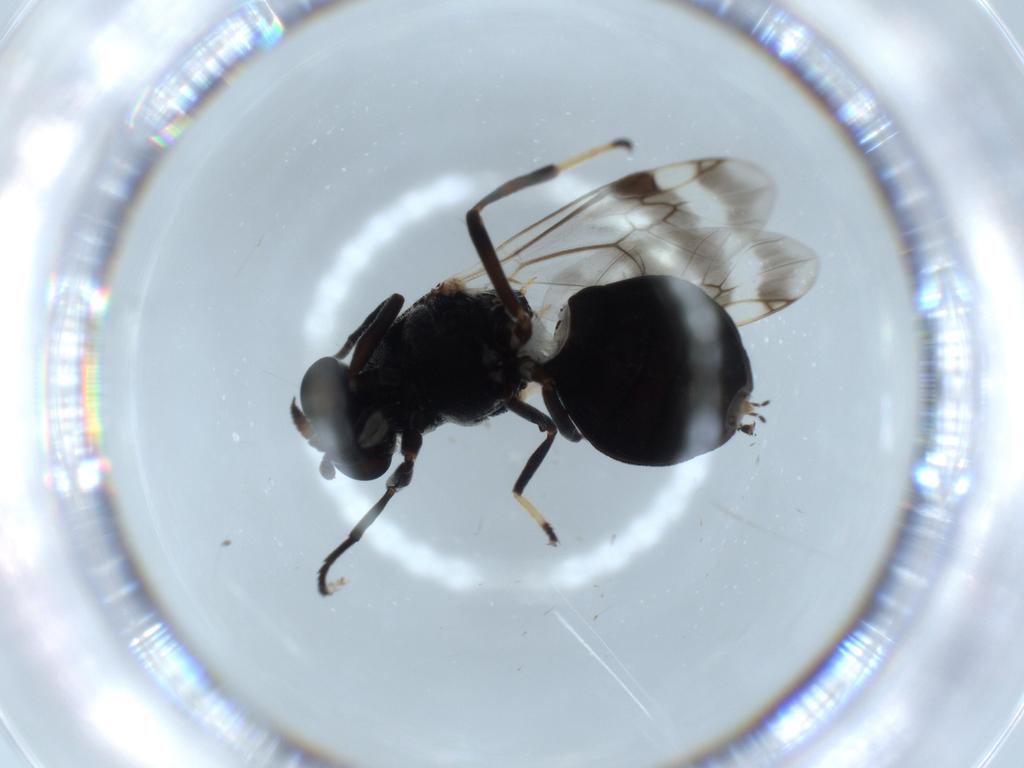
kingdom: Animalia
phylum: Arthropoda
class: Insecta
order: Diptera
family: Stratiomyidae
